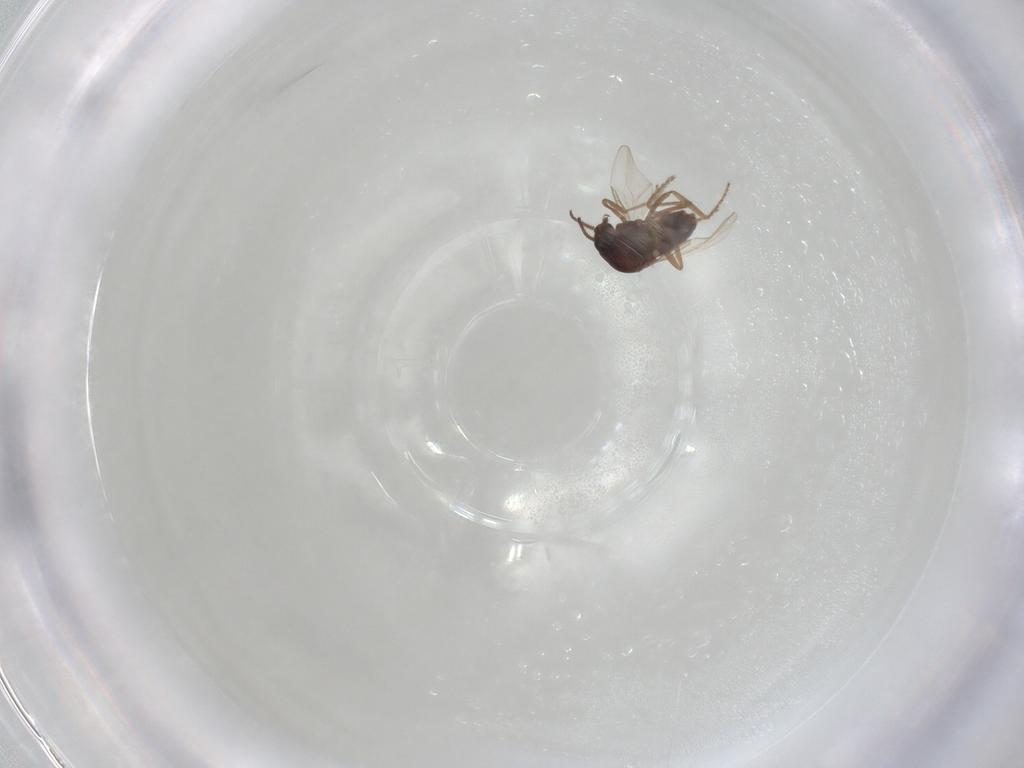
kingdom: Animalia
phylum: Arthropoda
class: Insecta
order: Diptera
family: Ceratopogonidae
